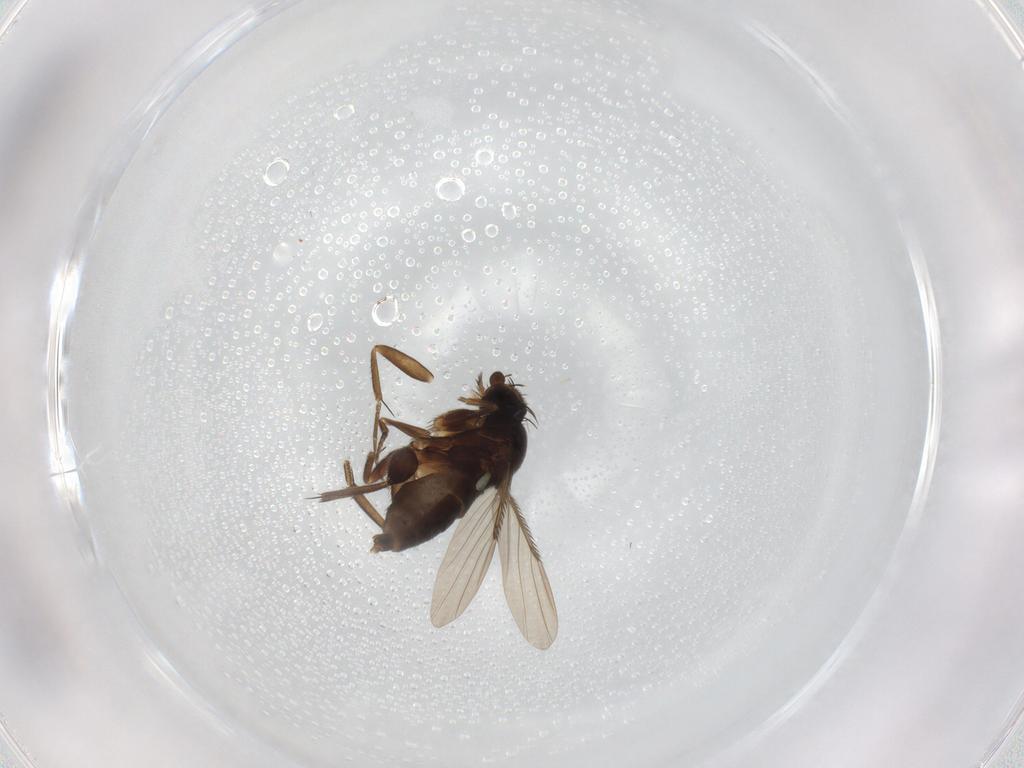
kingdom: Animalia
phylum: Arthropoda
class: Insecta
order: Diptera
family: Phoridae
